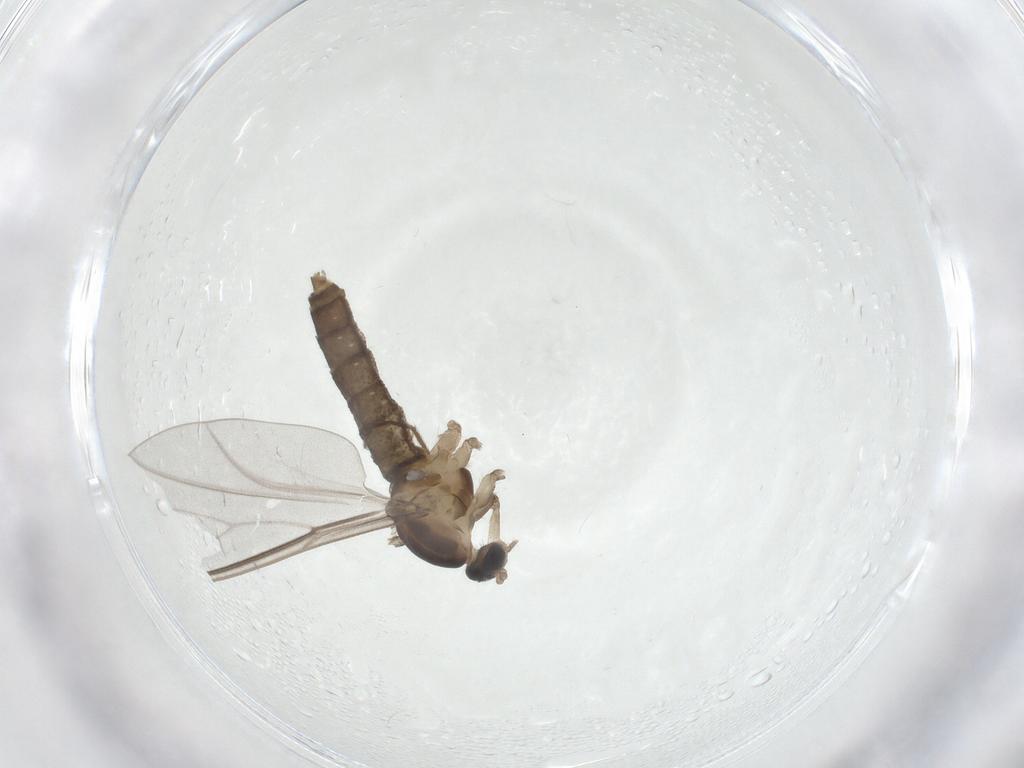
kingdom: Animalia
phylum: Arthropoda
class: Insecta
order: Diptera
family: Cecidomyiidae
